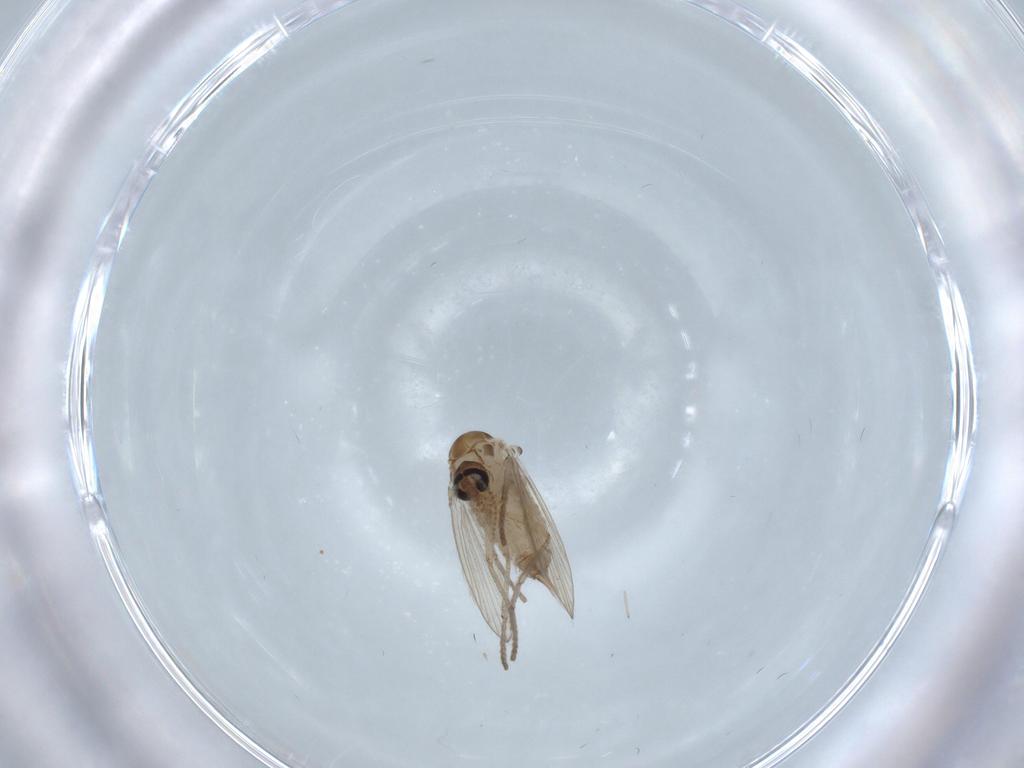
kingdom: Animalia
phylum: Arthropoda
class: Insecta
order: Diptera
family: Psychodidae
